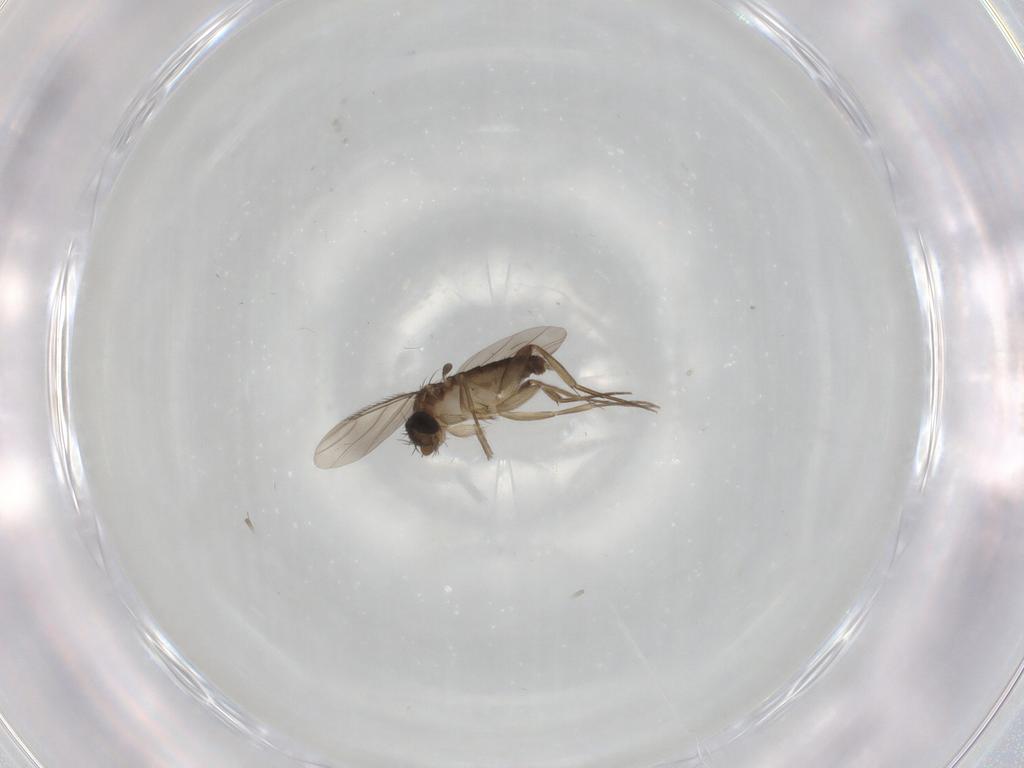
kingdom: Animalia
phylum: Arthropoda
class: Insecta
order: Diptera
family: Phoridae
